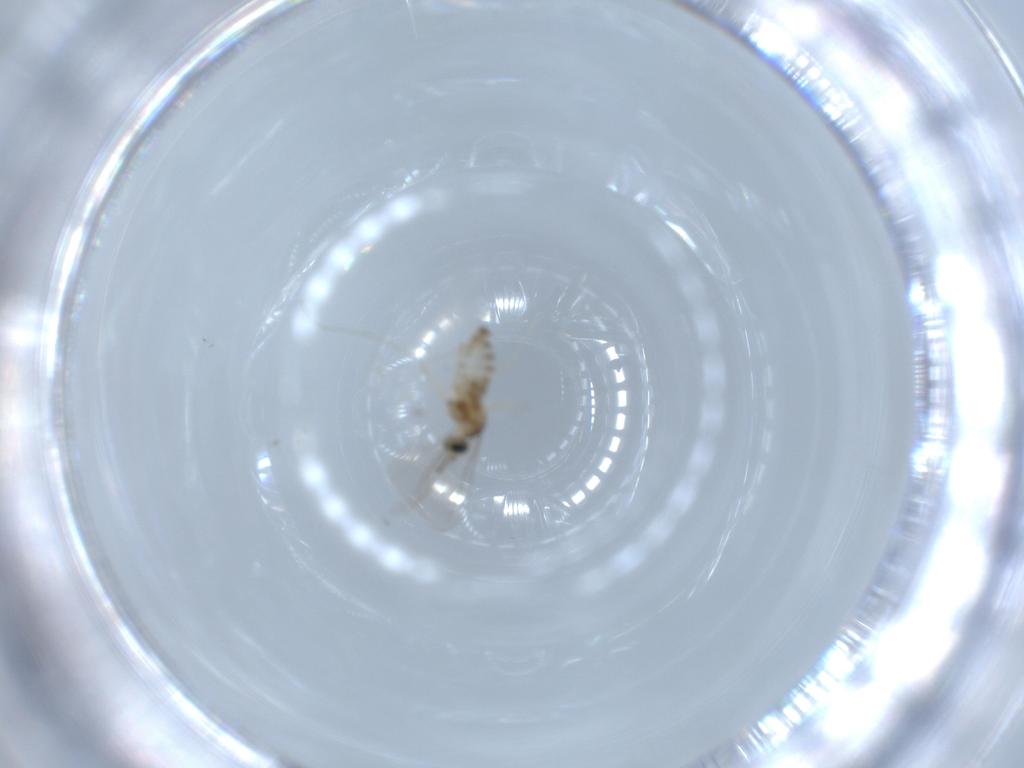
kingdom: Animalia
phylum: Arthropoda
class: Insecta
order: Diptera
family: Cecidomyiidae
